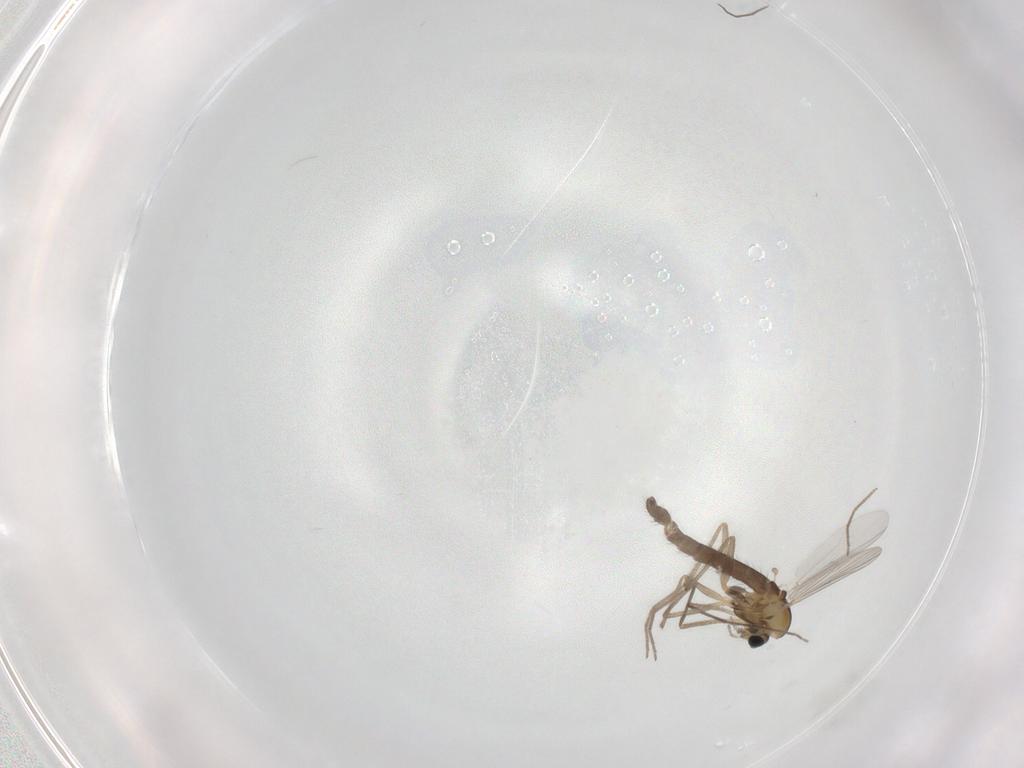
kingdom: Animalia
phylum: Arthropoda
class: Insecta
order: Diptera
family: Chironomidae
